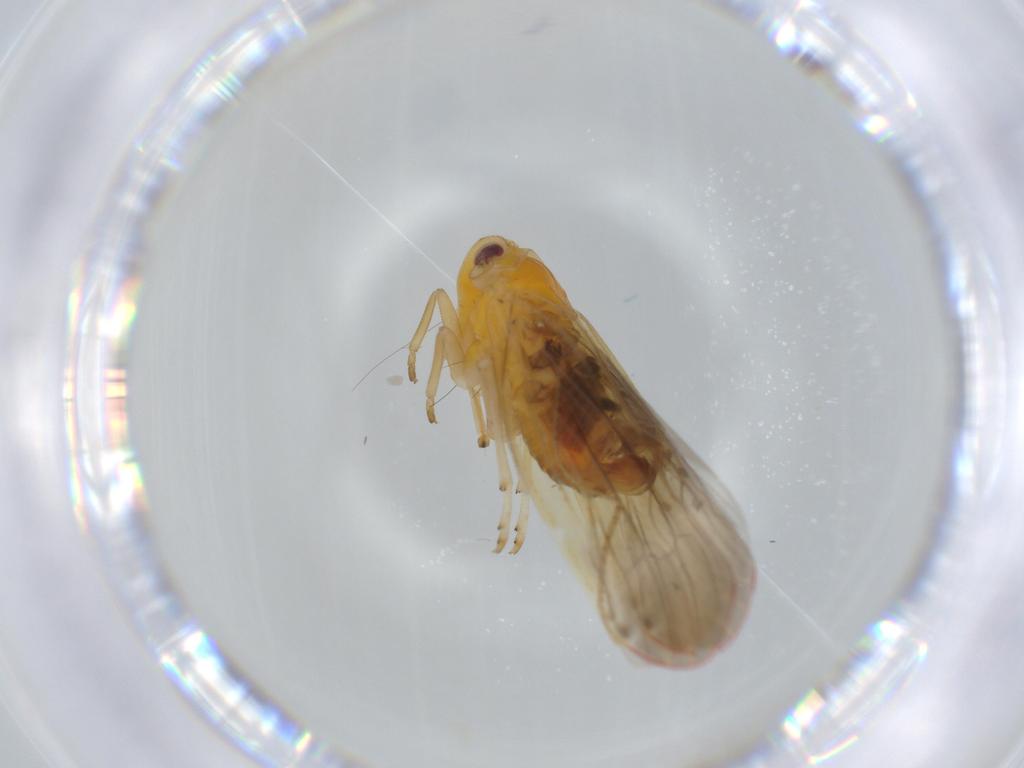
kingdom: Animalia
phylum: Arthropoda
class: Insecta
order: Hemiptera
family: Derbidae
